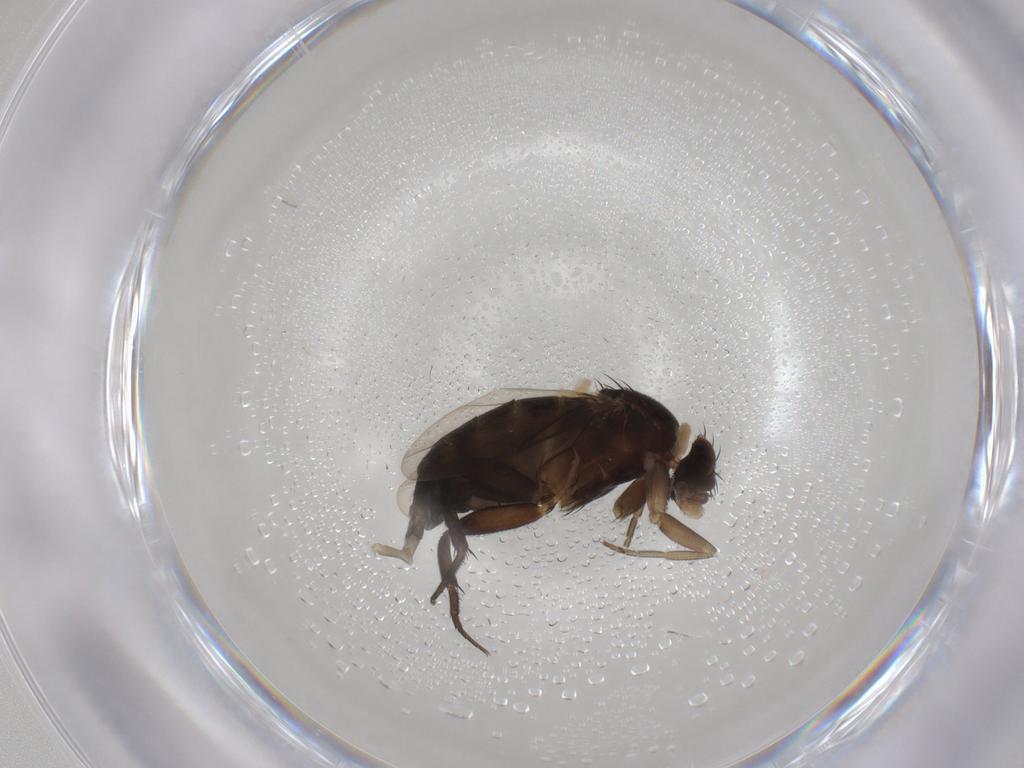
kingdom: Animalia
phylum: Arthropoda
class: Insecta
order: Diptera
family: Phoridae
